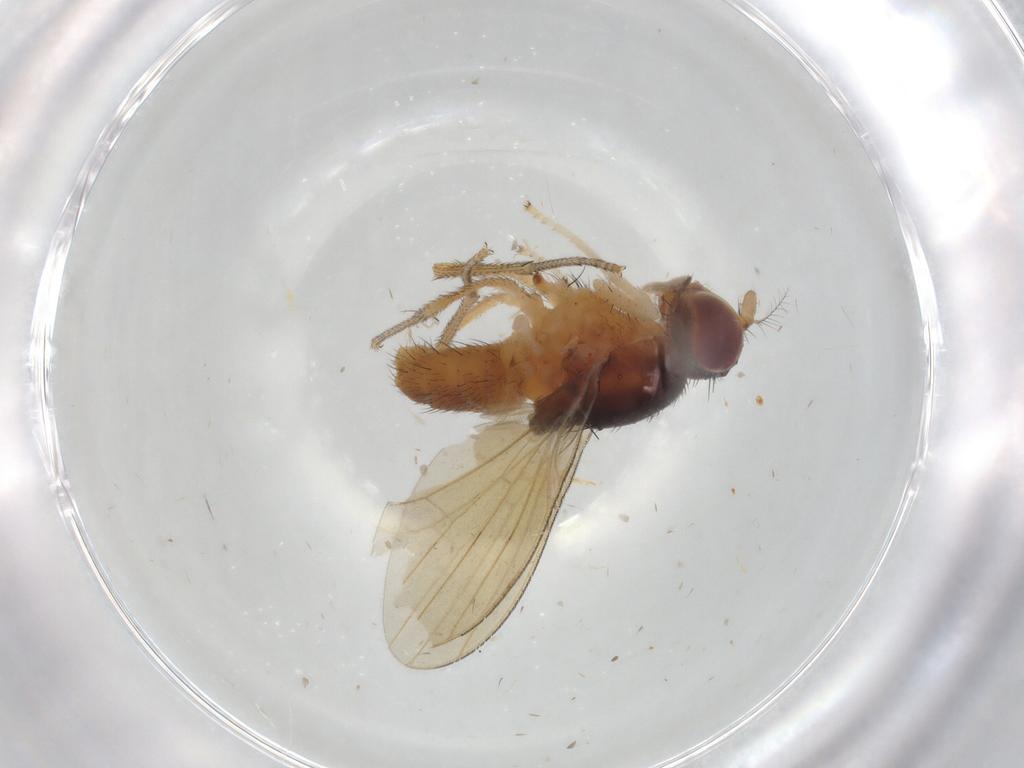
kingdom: Animalia
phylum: Arthropoda
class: Insecta
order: Diptera
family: Lauxaniidae
